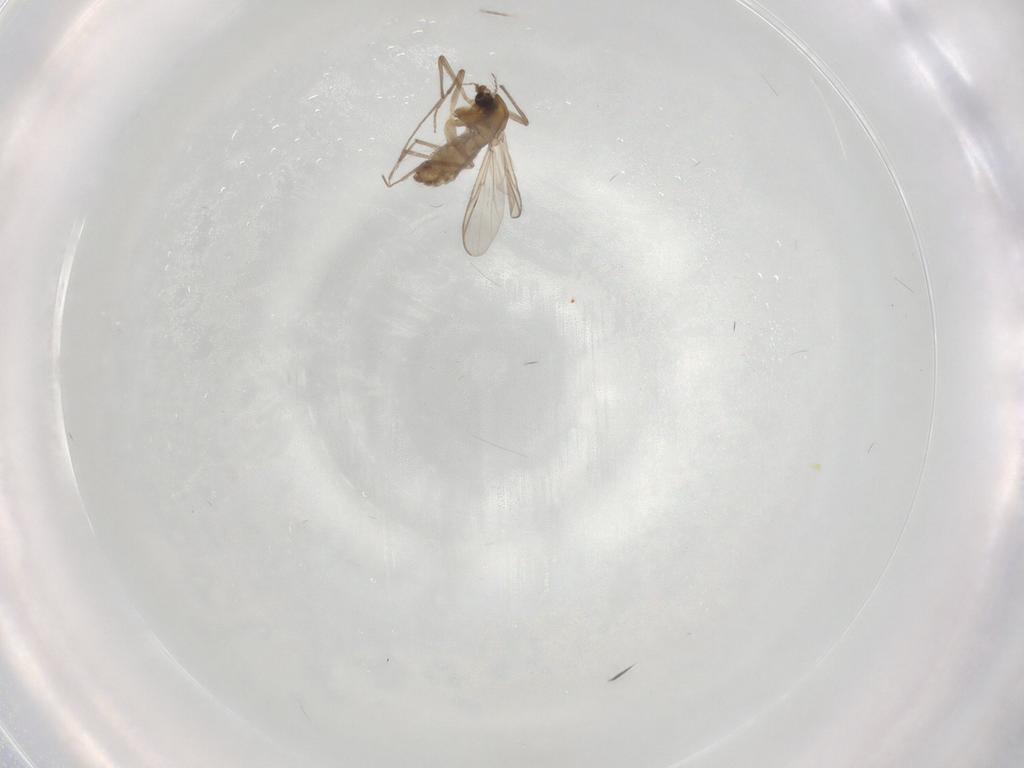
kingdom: Animalia
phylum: Arthropoda
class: Insecta
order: Diptera
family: Chironomidae
